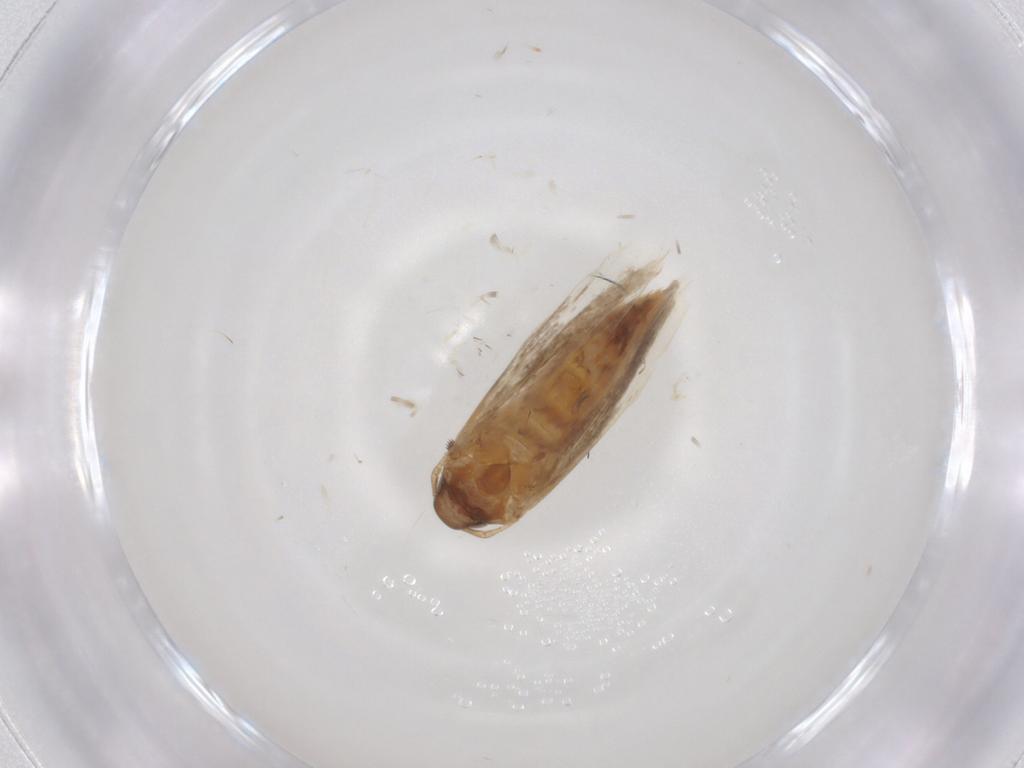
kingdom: Animalia
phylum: Arthropoda
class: Insecta
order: Lepidoptera
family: Gelechiidae
